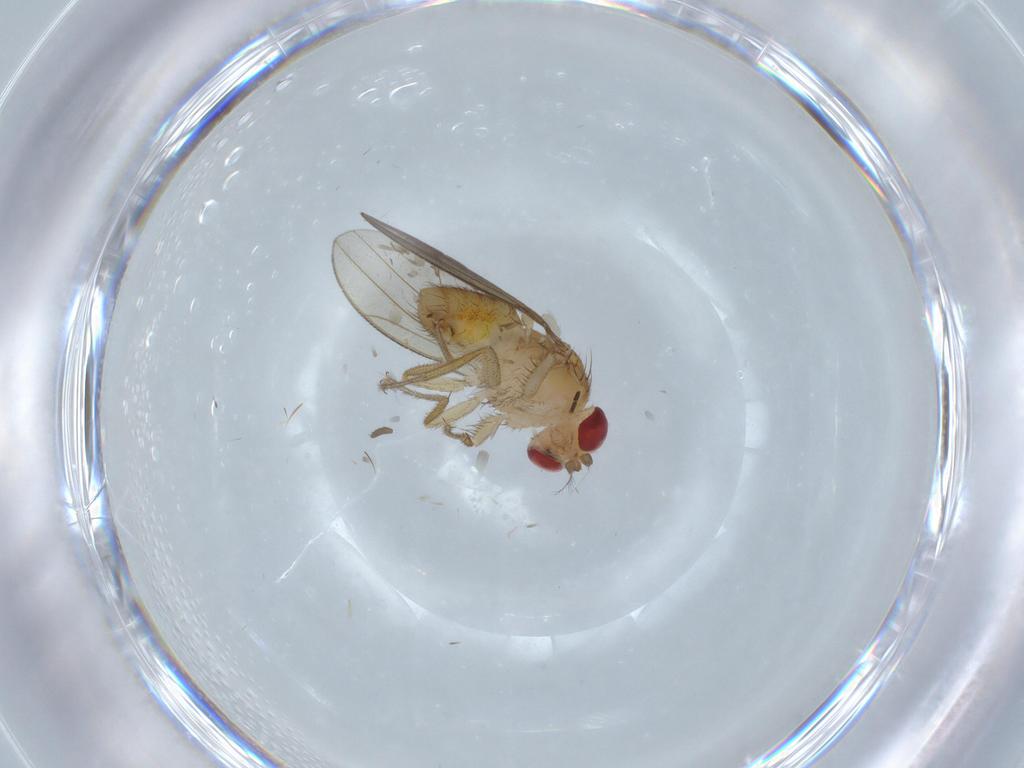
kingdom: Animalia
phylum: Arthropoda
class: Insecta
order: Diptera
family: Drosophilidae
